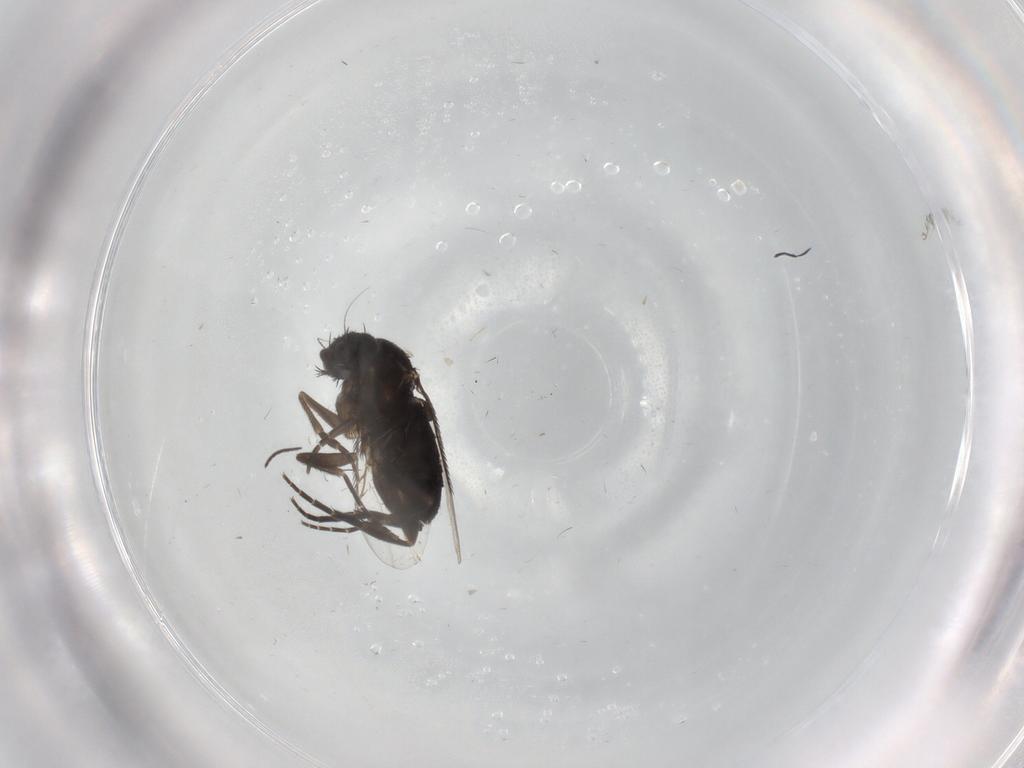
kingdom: Animalia
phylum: Arthropoda
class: Insecta
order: Diptera
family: Phoridae
